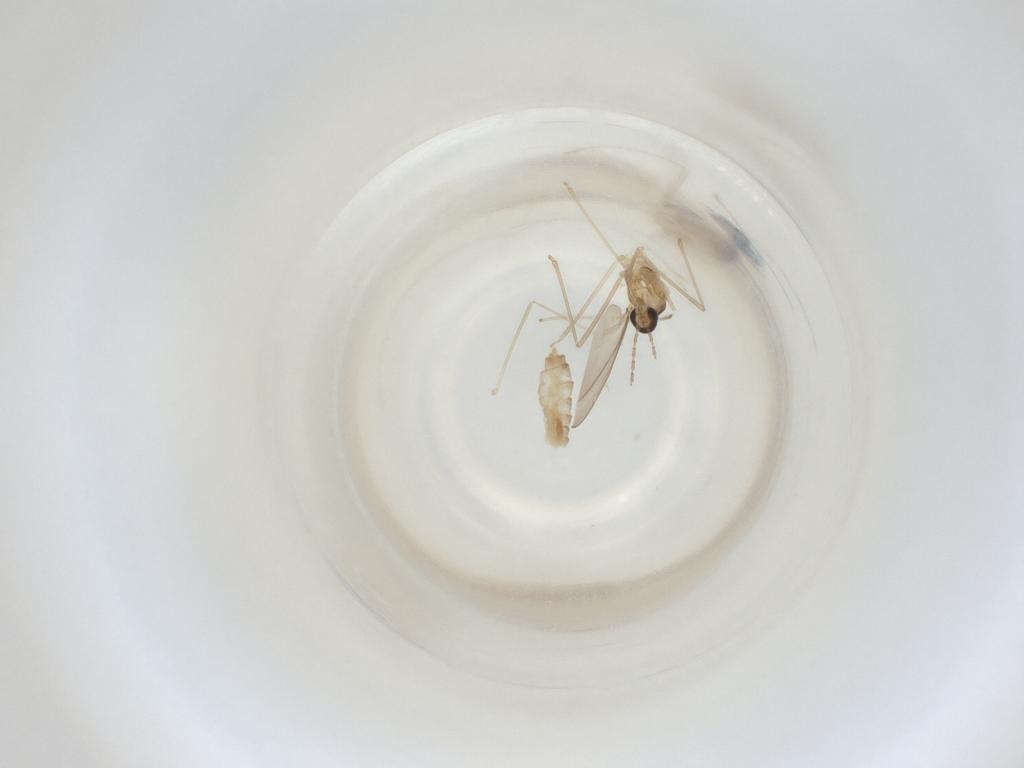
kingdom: Animalia
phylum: Arthropoda
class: Insecta
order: Diptera
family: Cecidomyiidae
